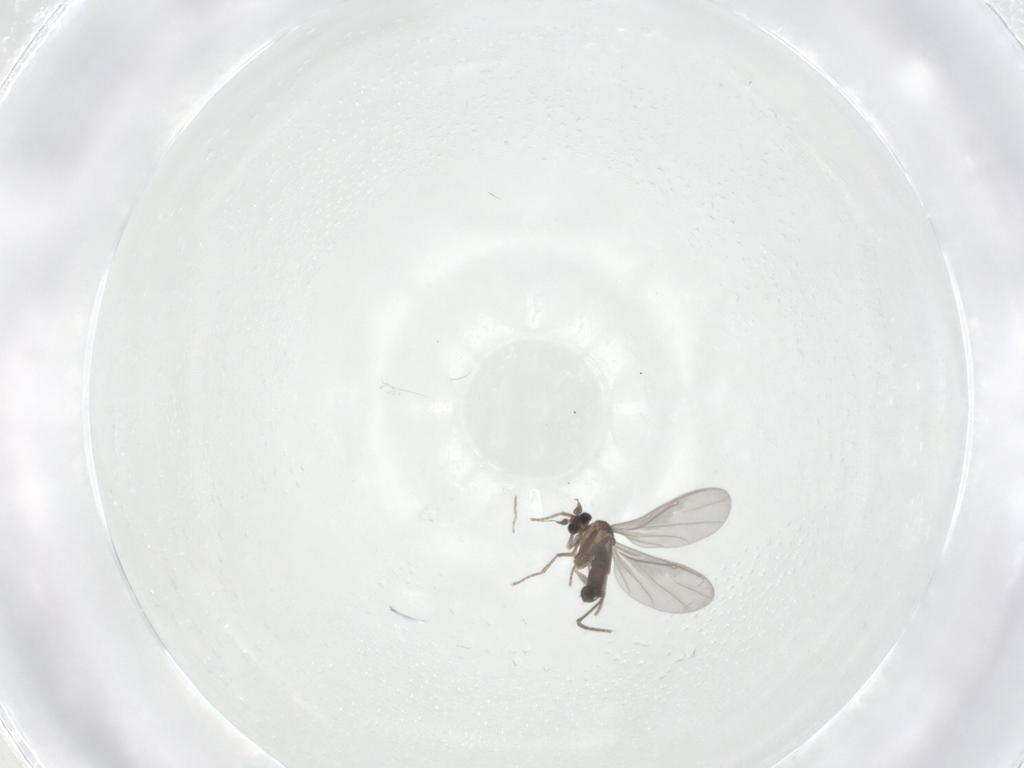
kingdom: Animalia
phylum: Arthropoda
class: Insecta
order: Diptera
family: Phoridae
